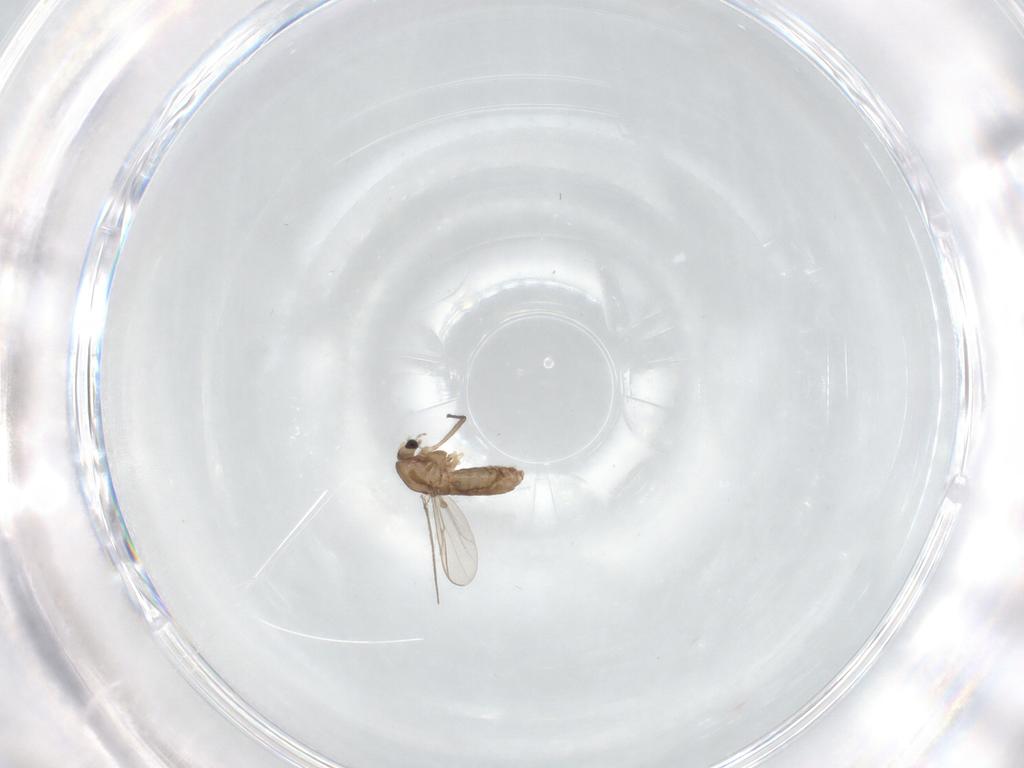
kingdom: Animalia
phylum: Arthropoda
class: Insecta
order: Diptera
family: Chironomidae
